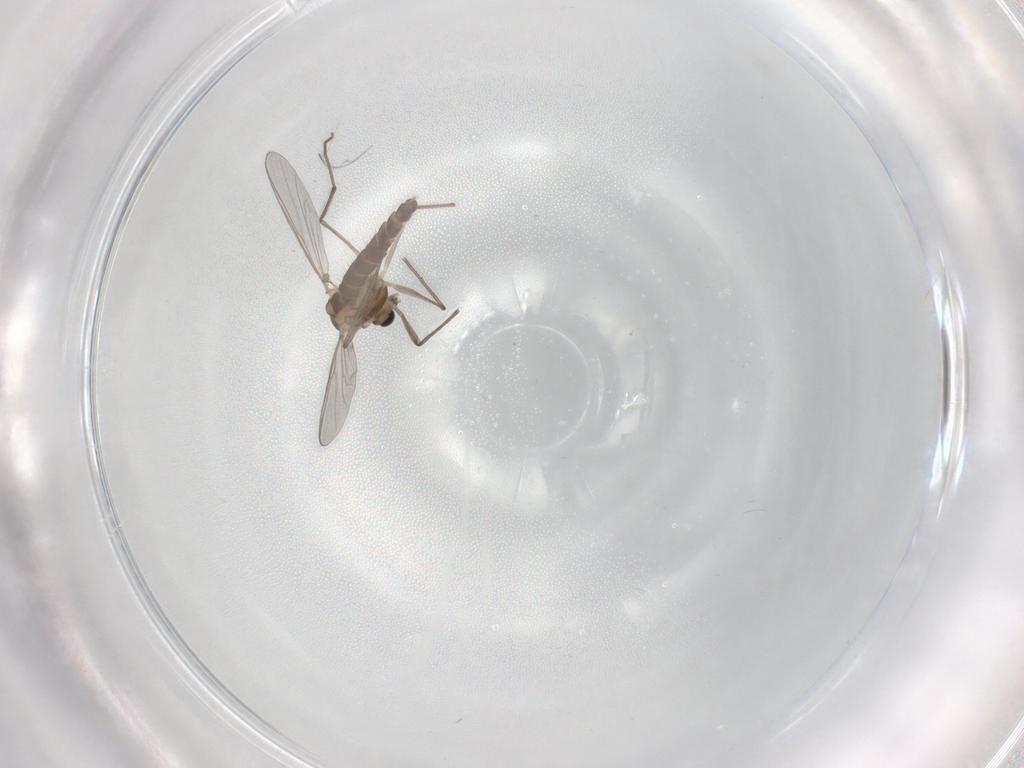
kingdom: Animalia
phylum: Arthropoda
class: Insecta
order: Diptera
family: Chironomidae
